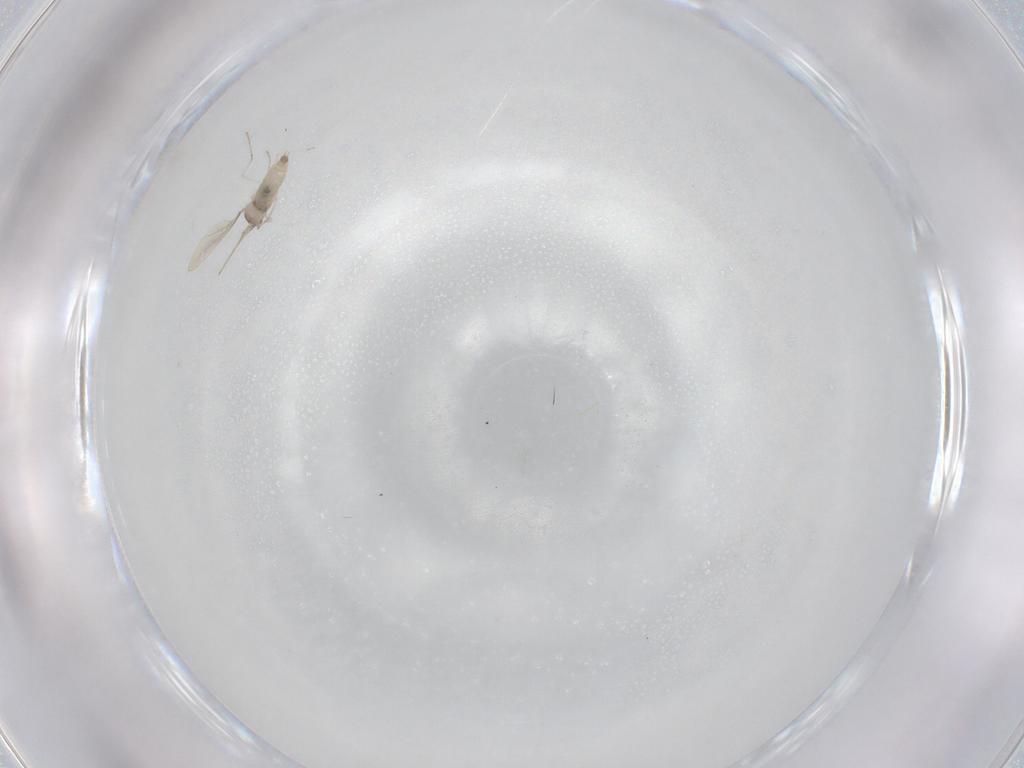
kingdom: Animalia
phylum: Arthropoda
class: Insecta
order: Diptera
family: Cecidomyiidae
